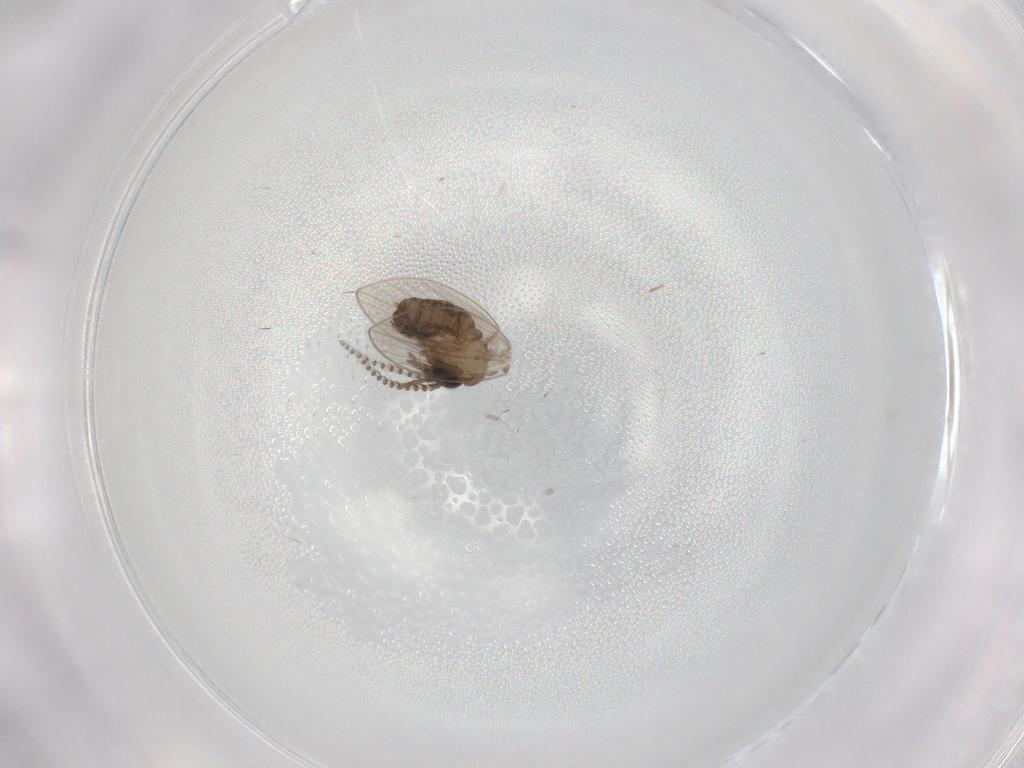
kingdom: Animalia
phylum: Arthropoda
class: Insecta
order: Diptera
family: Psychodidae
